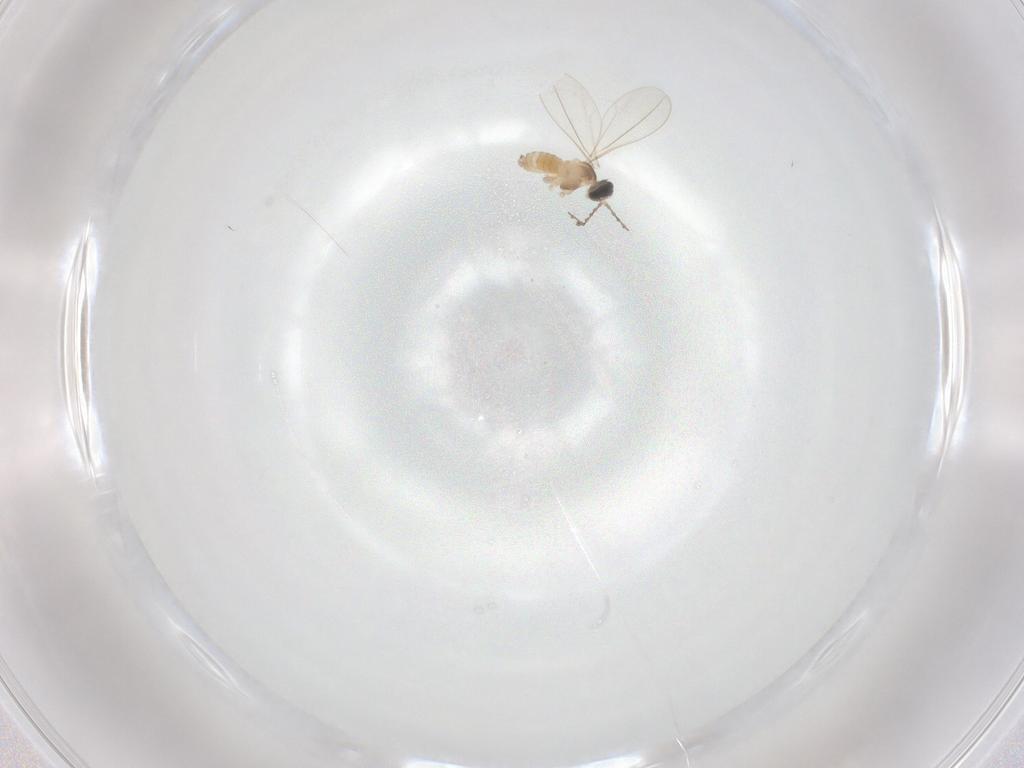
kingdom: Animalia
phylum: Arthropoda
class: Insecta
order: Diptera
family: Cecidomyiidae
